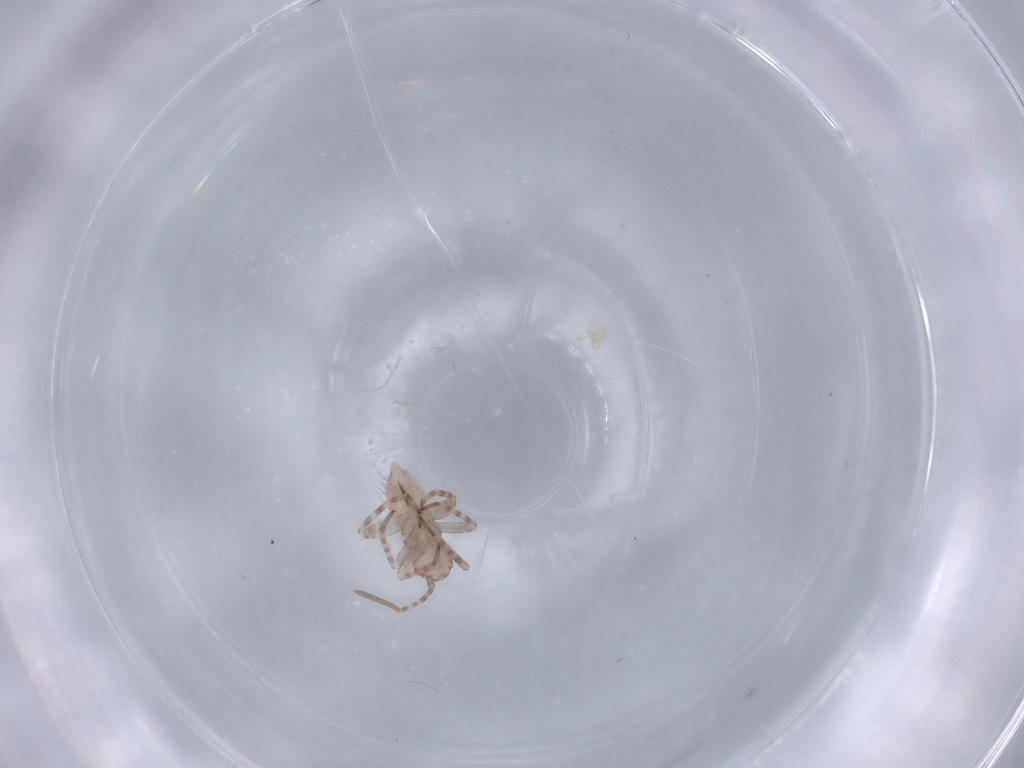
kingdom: Animalia
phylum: Arthropoda
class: Insecta
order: Hemiptera
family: Miridae
